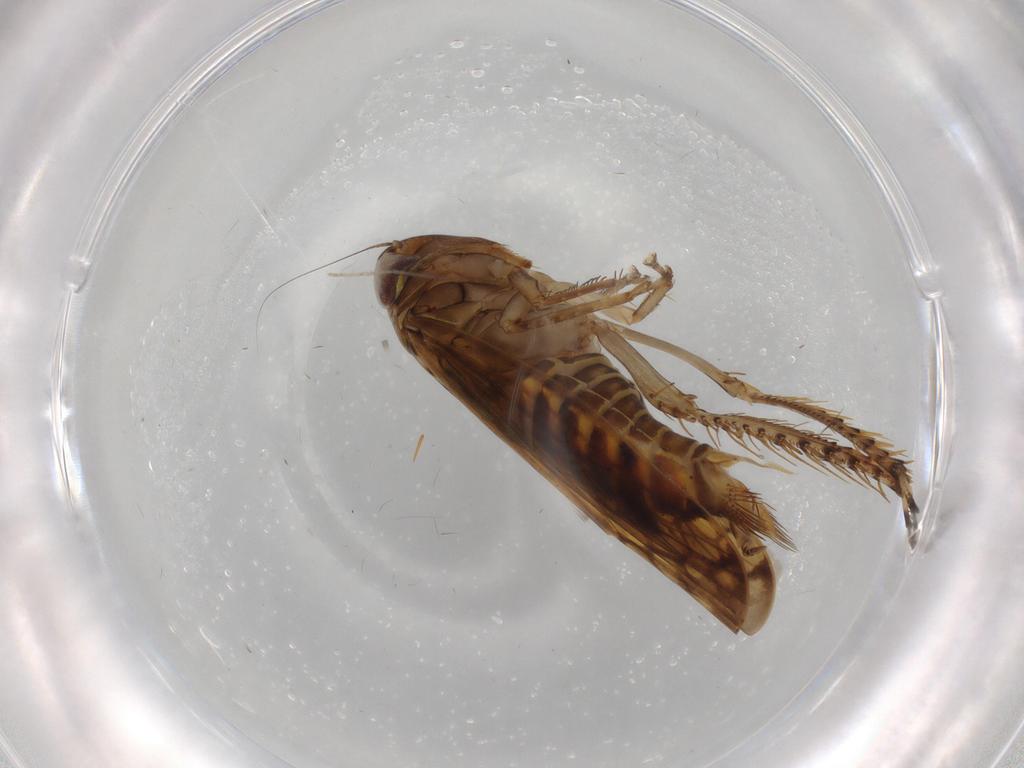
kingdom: Animalia
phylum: Arthropoda
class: Insecta
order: Hemiptera
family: Cicadellidae
